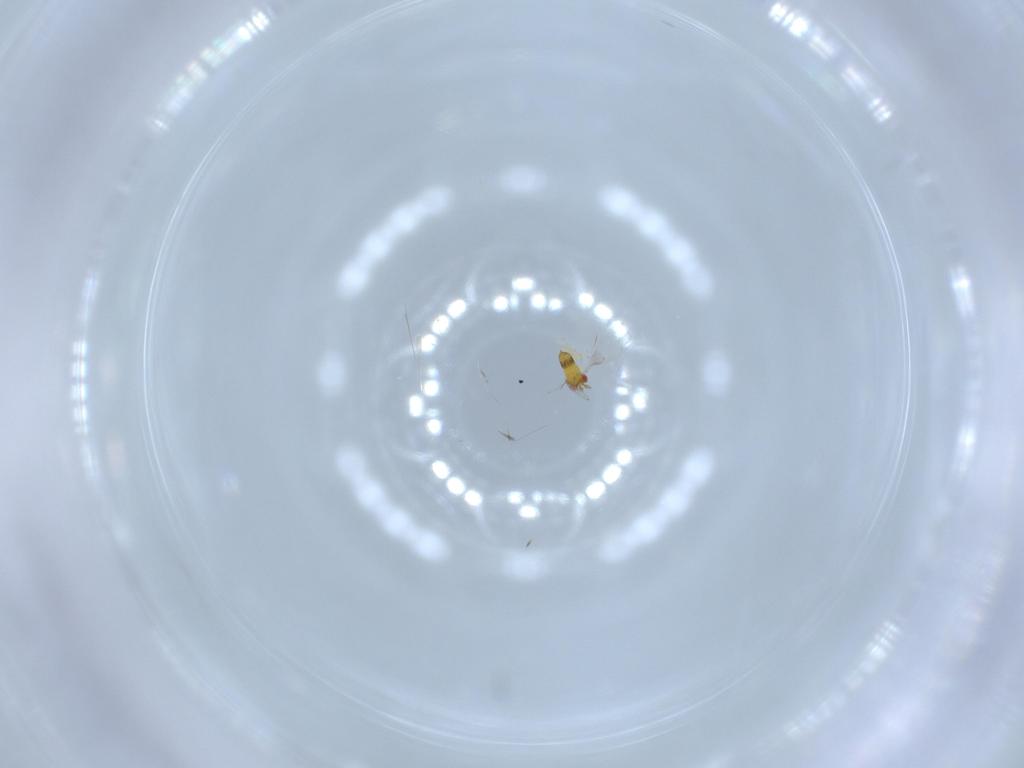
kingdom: Animalia
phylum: Arthropoda
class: Insecta
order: Hymenoptera
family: Trichogrammatidae
